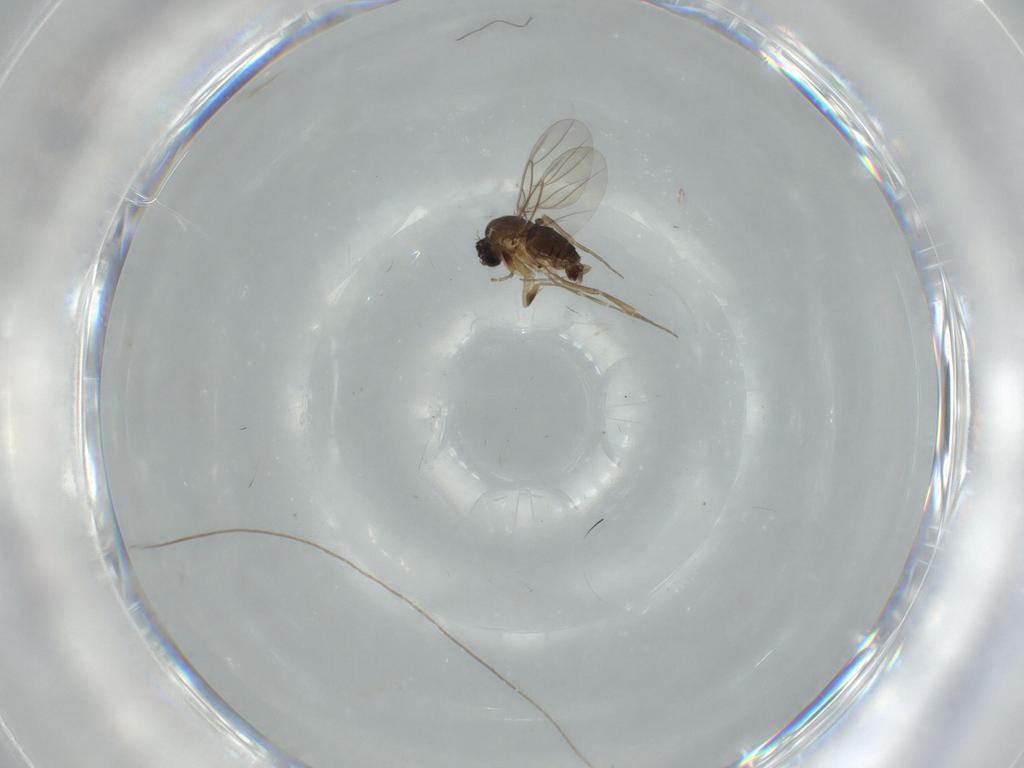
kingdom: Animalia
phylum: Arthropoda
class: Insecta
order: Diptera
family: Phoridae
